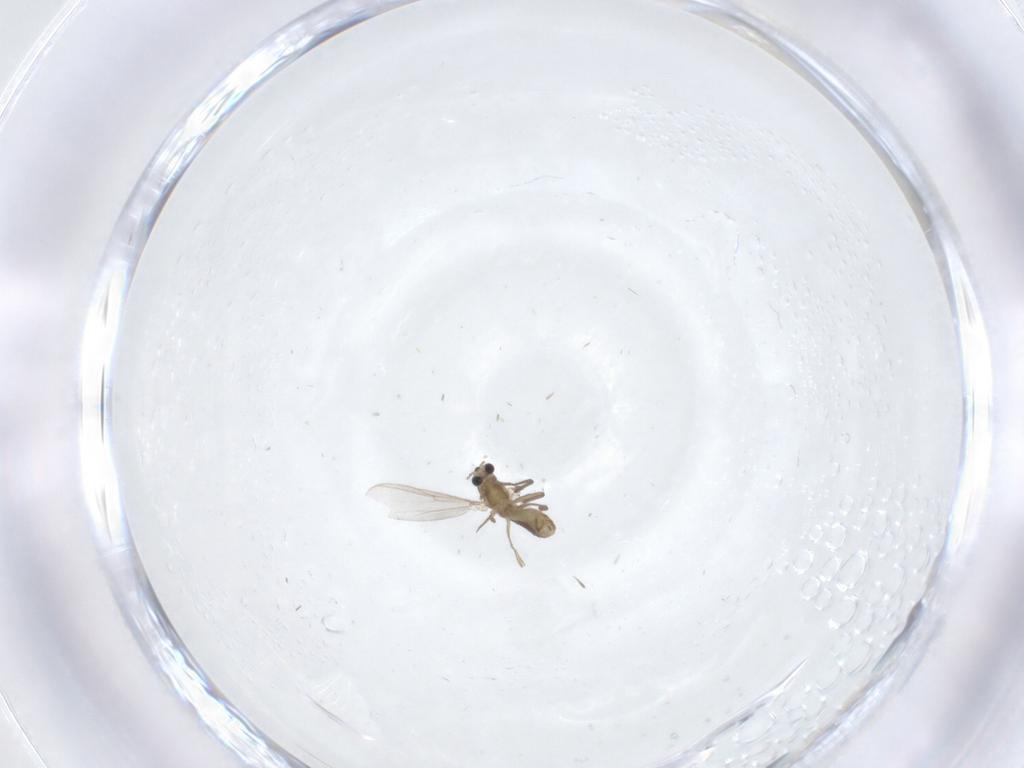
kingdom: Animalia
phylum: Arthropoda
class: Insecta
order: Diptera
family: Chironomidae
